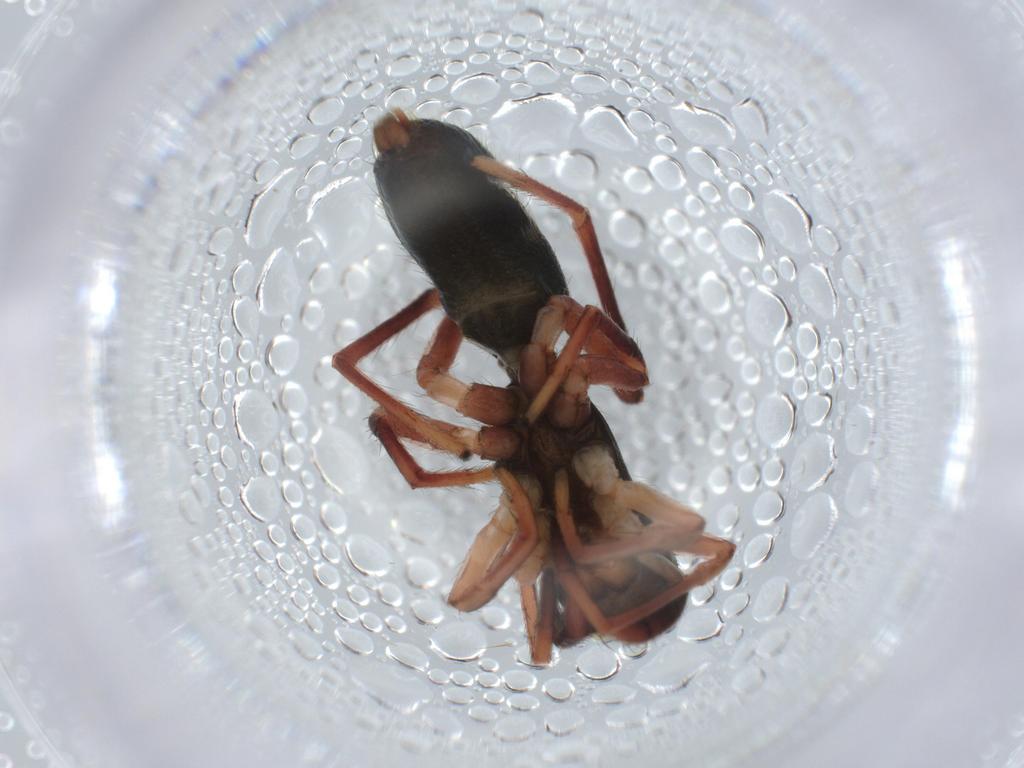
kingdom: Animalia
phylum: Arthropoda
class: Arachnida
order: Araneae
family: Salticidae
